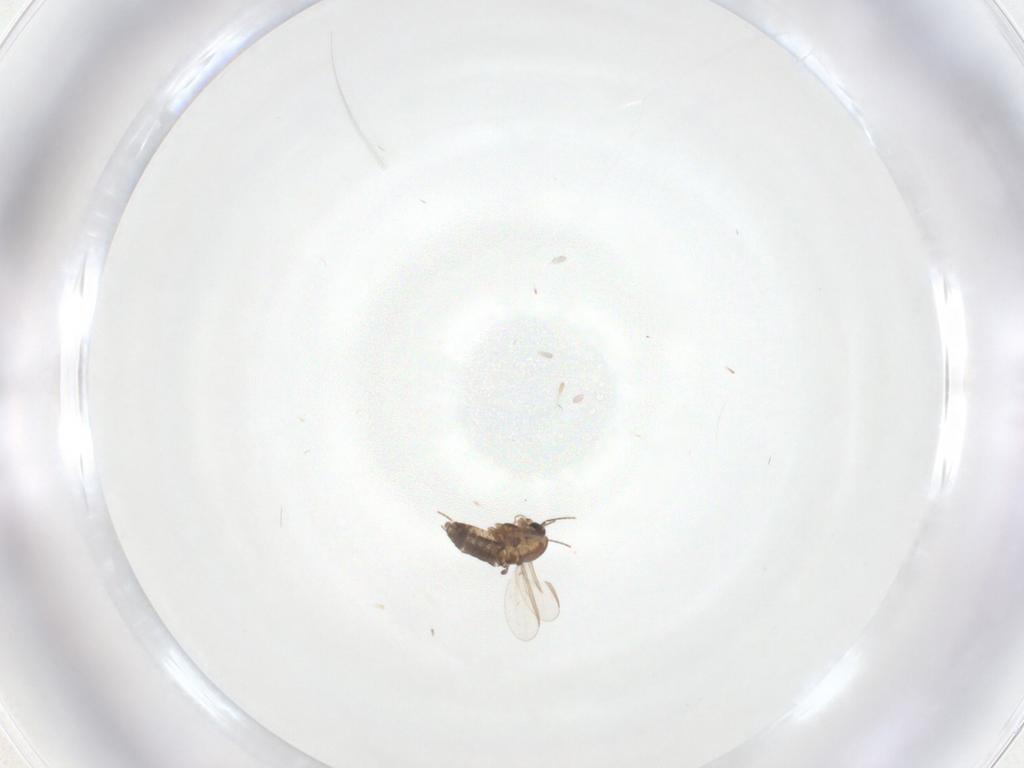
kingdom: Animalia
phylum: Arthropoda
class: Insecta
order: Diptera
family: Chironomidae
